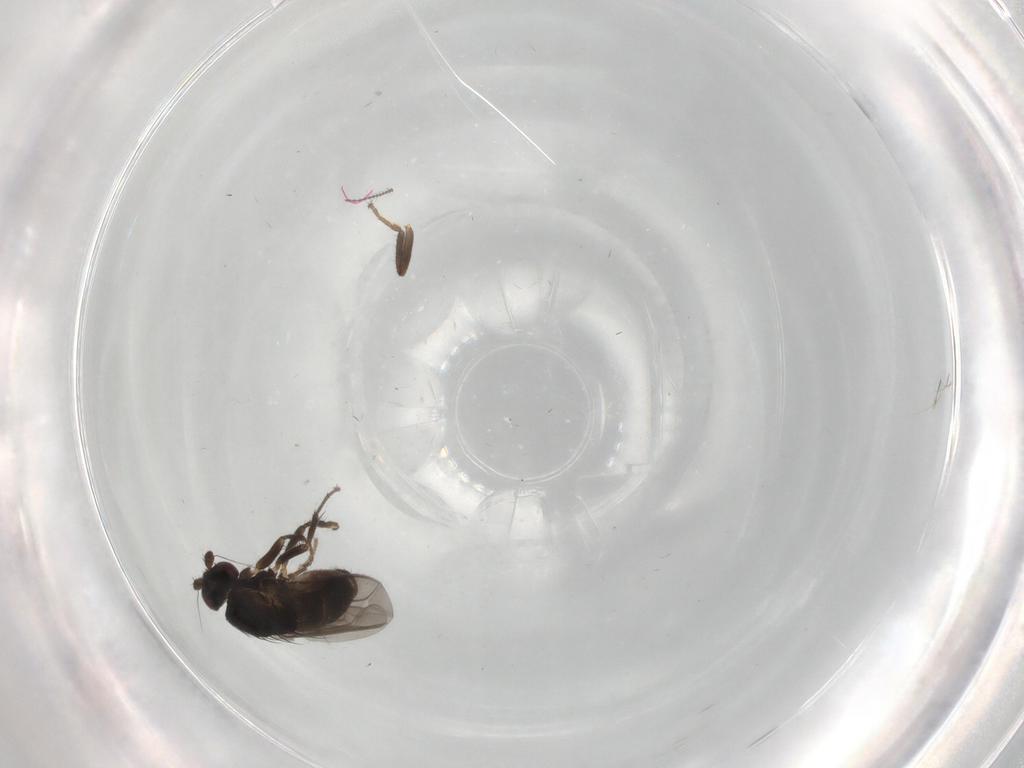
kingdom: Animalia
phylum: Arthropoda
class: Insecta
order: Diptera
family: Sphaeroceridae
